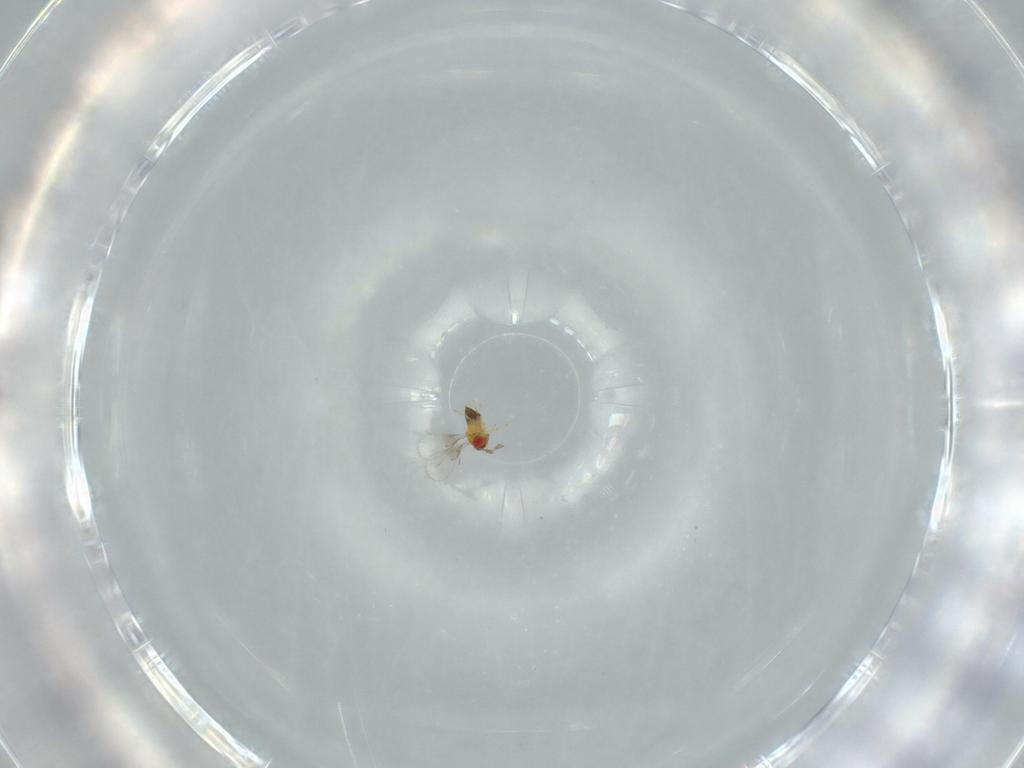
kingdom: Animalia
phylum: Arthropoda
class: Insecta
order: Hymenoptera
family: Trichogrammatidae
